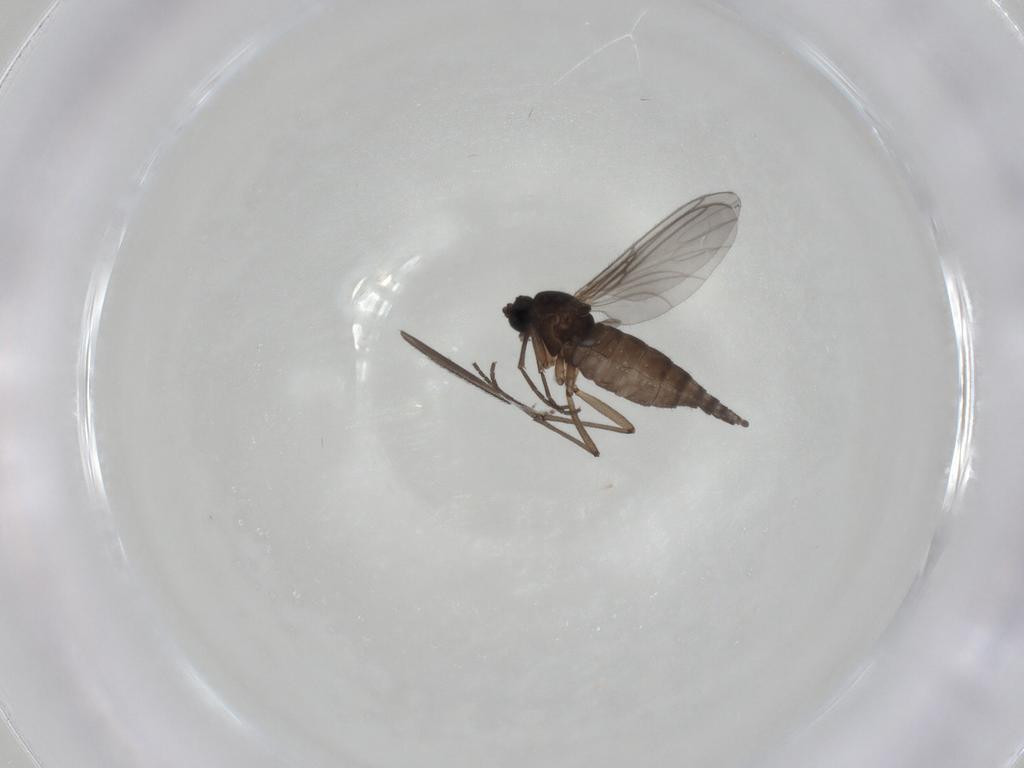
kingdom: Animalia
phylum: Arthropoda
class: Insecta
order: Diptera
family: Sciaridae
